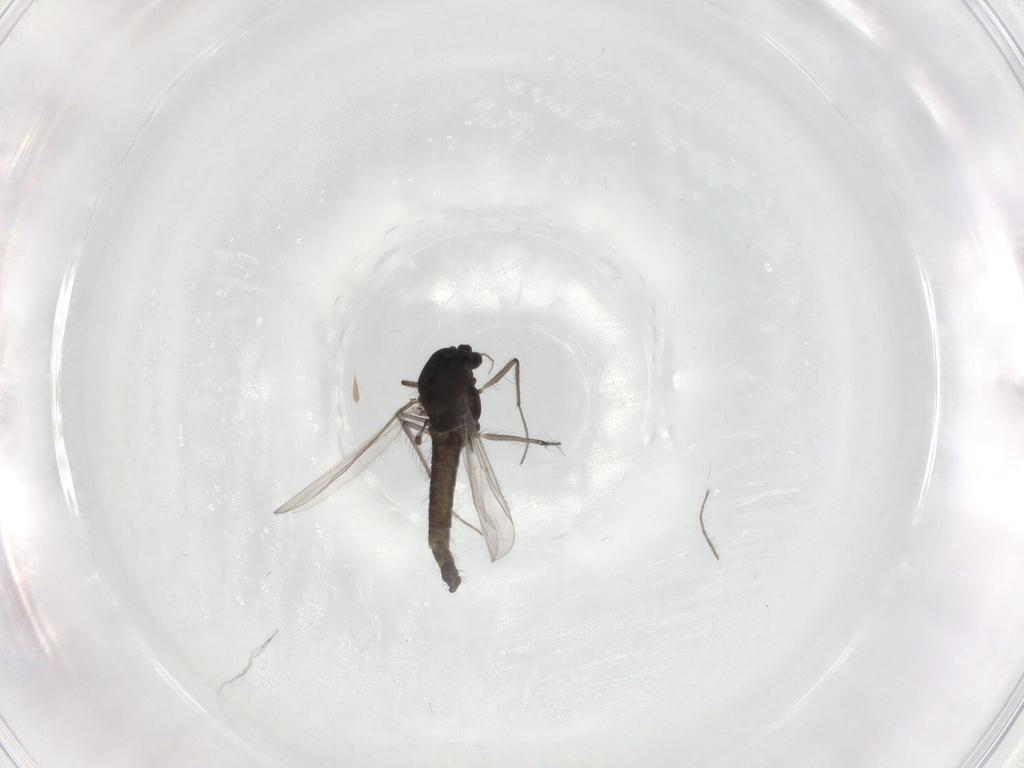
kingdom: Animalia
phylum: Arthropoda
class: Insecta
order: Diptera
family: Chironomidae
